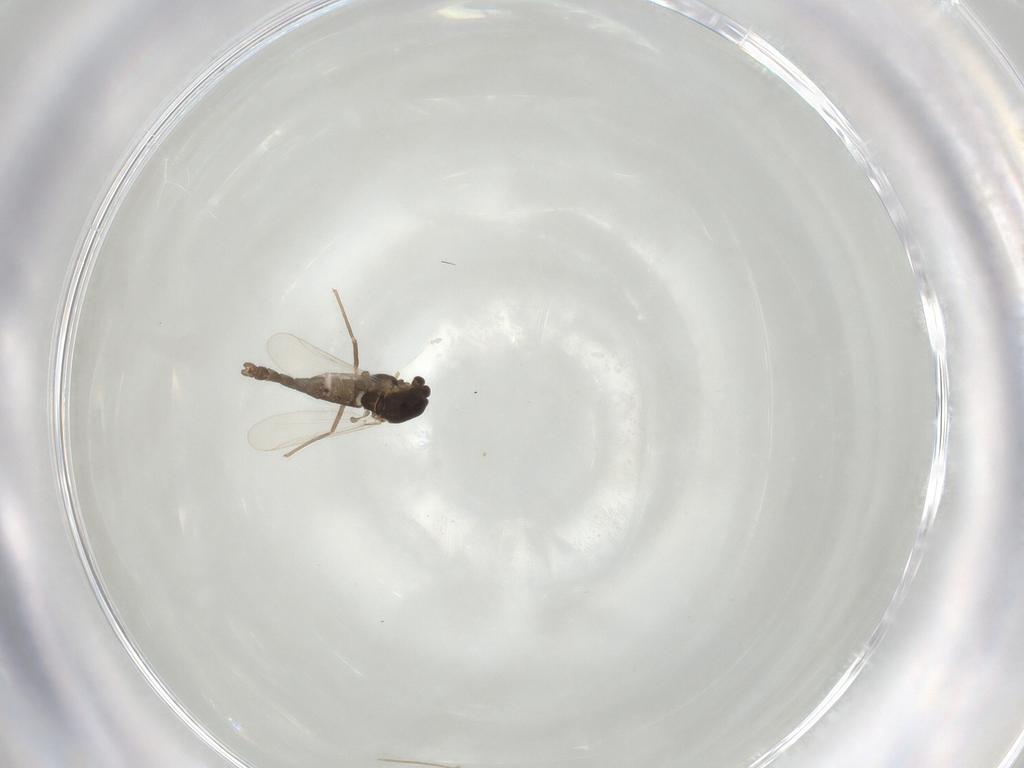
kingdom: Animalia
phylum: Arthropoda
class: Insecta
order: Diptera
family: Chironomidae
